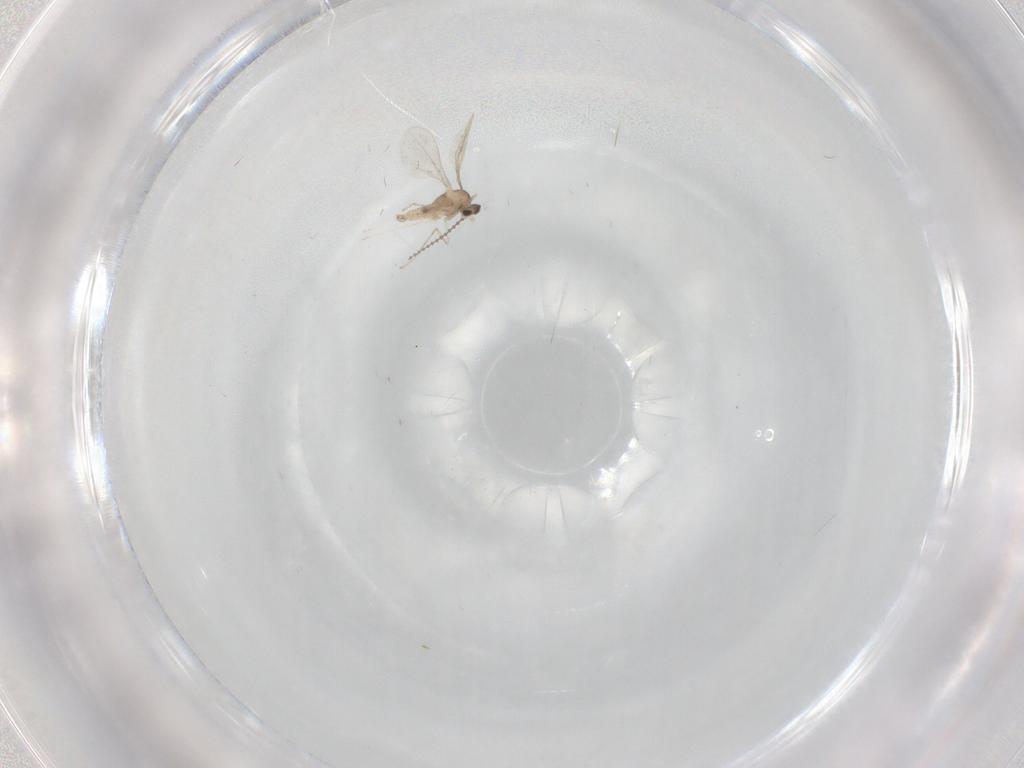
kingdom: Animalia
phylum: Arthropoda
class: Insecta
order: Diptera
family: Cecidomyiidae
